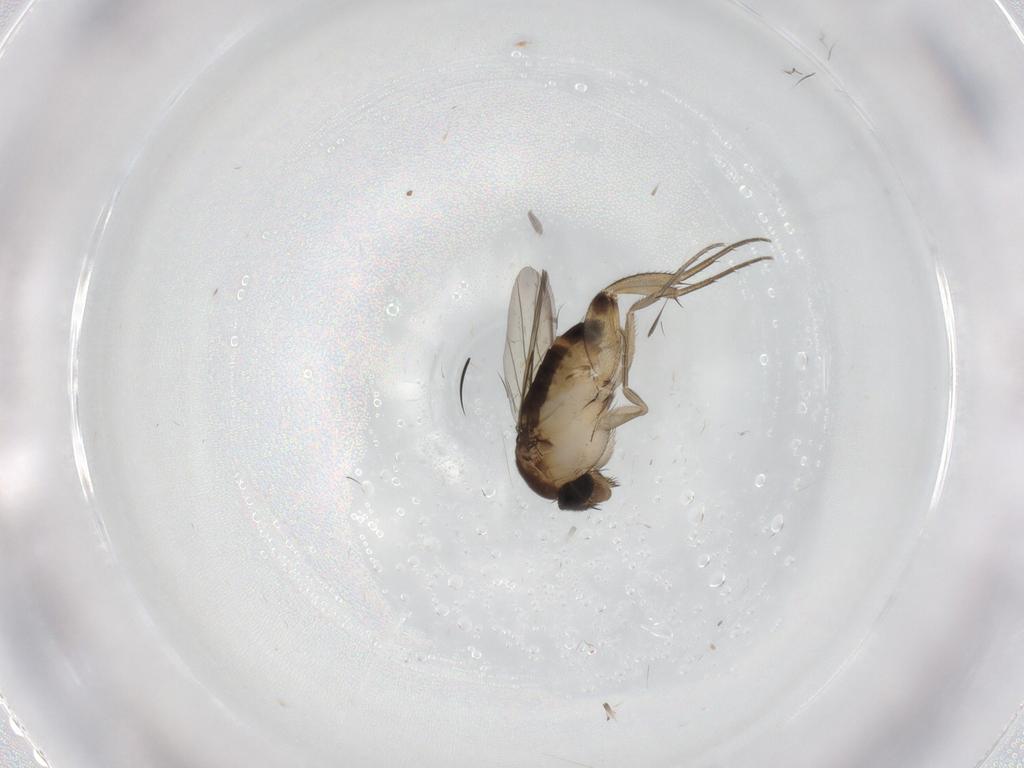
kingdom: Animalia
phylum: Arthropoda
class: Insecta
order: Diptera
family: Phoridae
